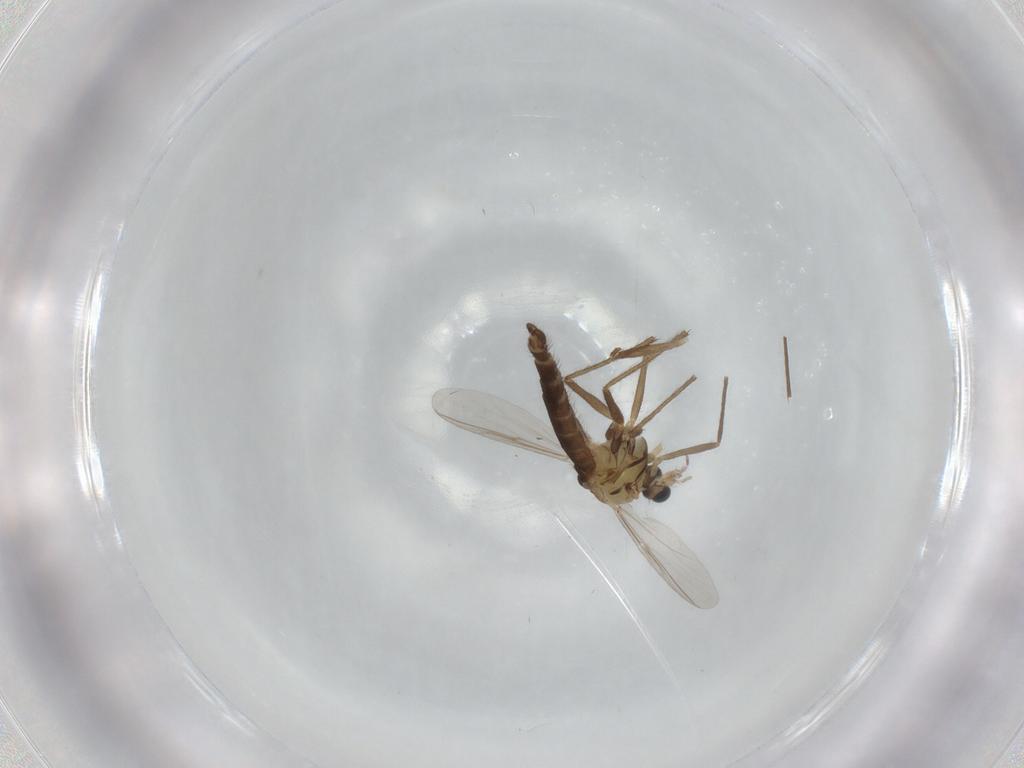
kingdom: Animalia
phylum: Arthropoda
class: Insecta
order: Diptera
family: Chironomidae
